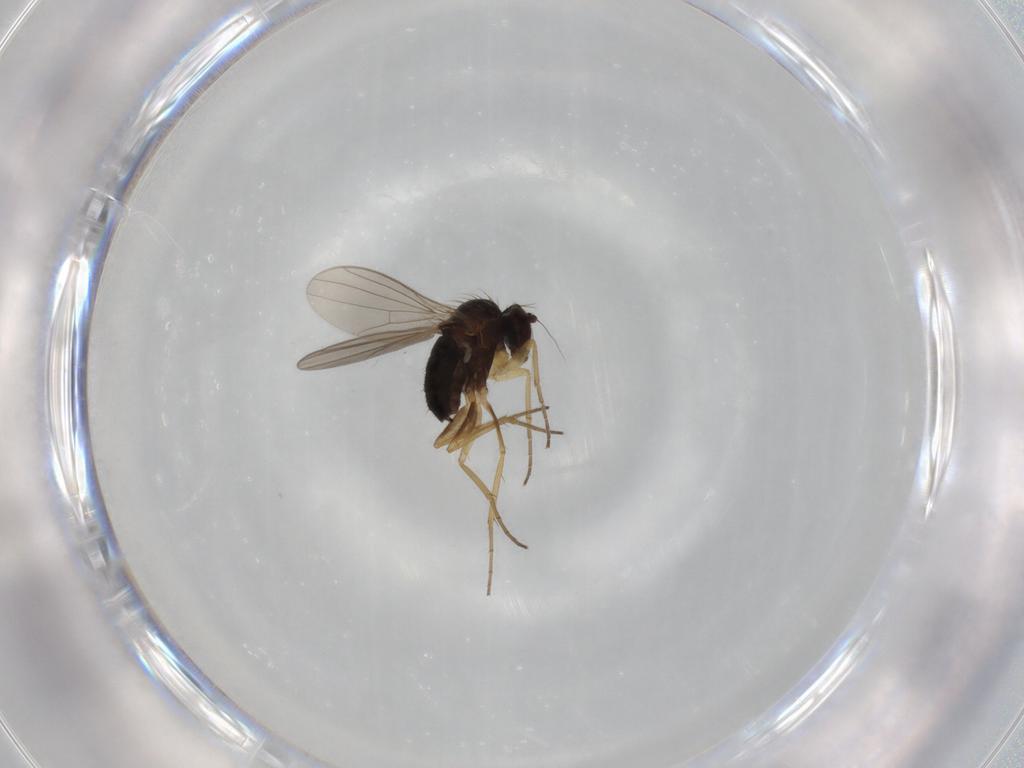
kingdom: Animalia
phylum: Arthropoda
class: Insecta
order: Diptera
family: Dolichopodidae
